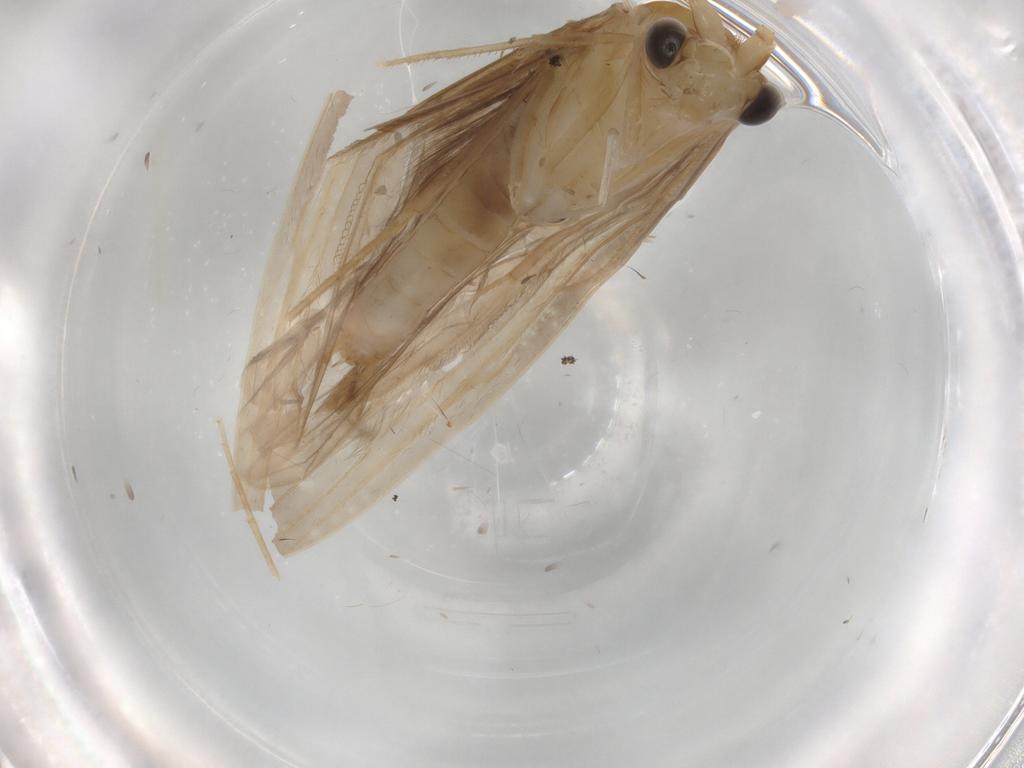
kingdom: Animalia
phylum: Arthropoda
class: Insecta
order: Trichoptera
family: Leptoceridae
